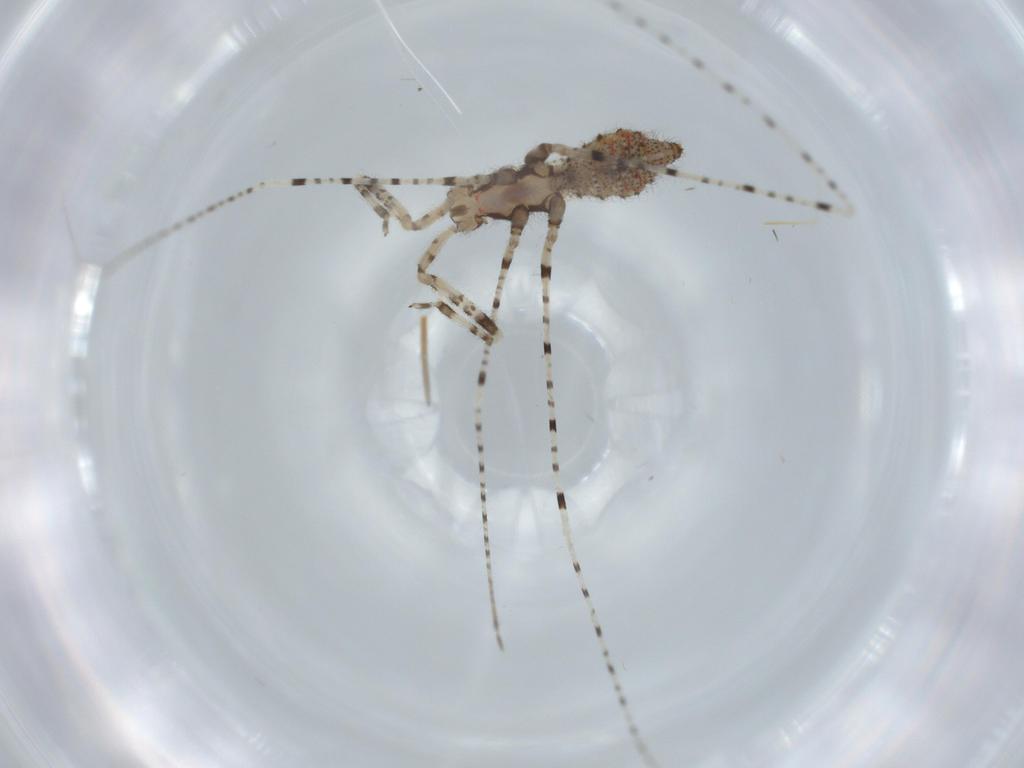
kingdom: Animalia
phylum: Arthropoda
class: Insecta
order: Hemiptera
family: Reduviidae
